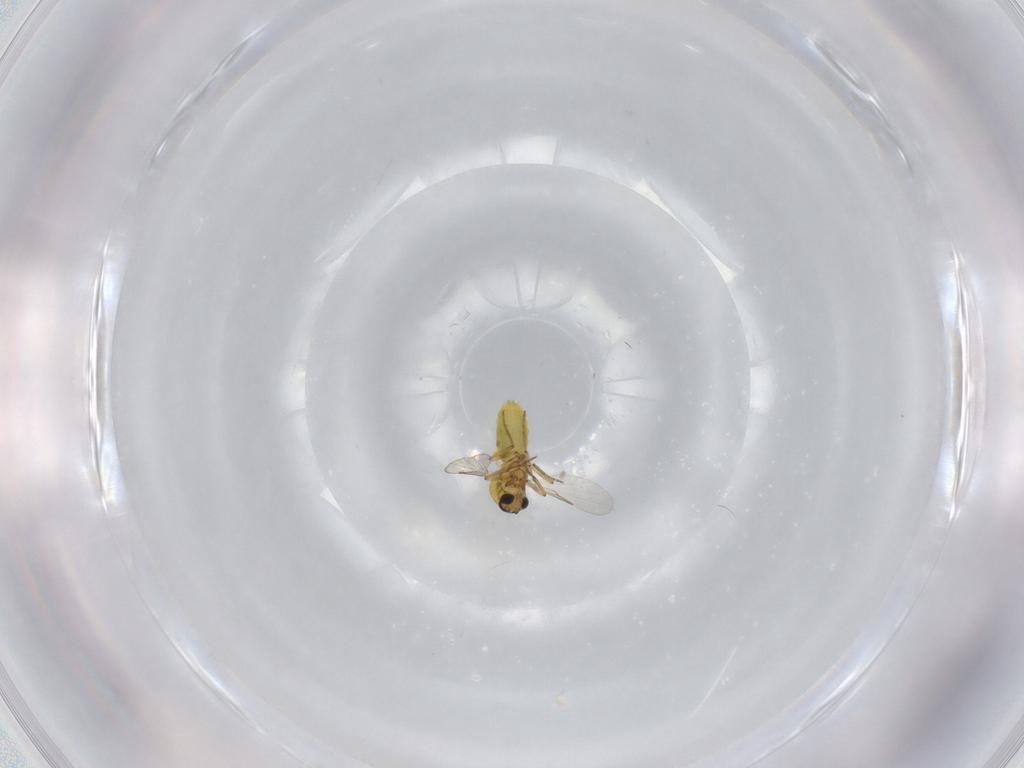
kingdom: Animalia
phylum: Arthropoda
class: Insecta
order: Diptera
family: Ceratopogonidae
